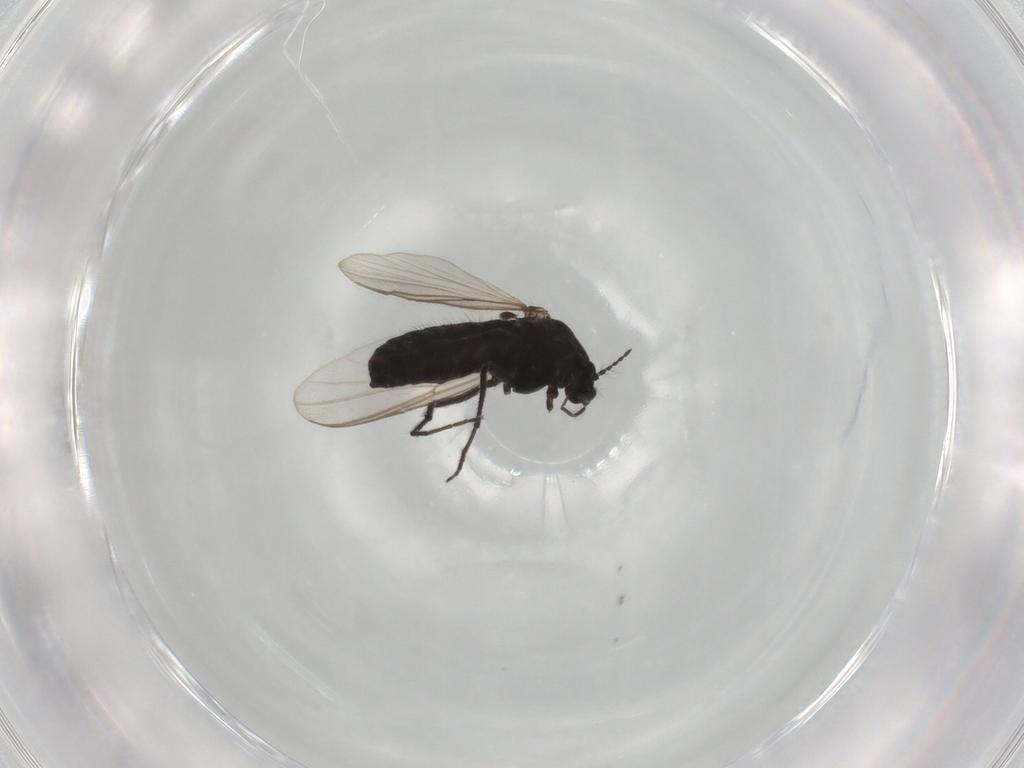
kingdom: Animalia
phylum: Arthropoda
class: Insecta
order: Diptera
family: Chironomidae
